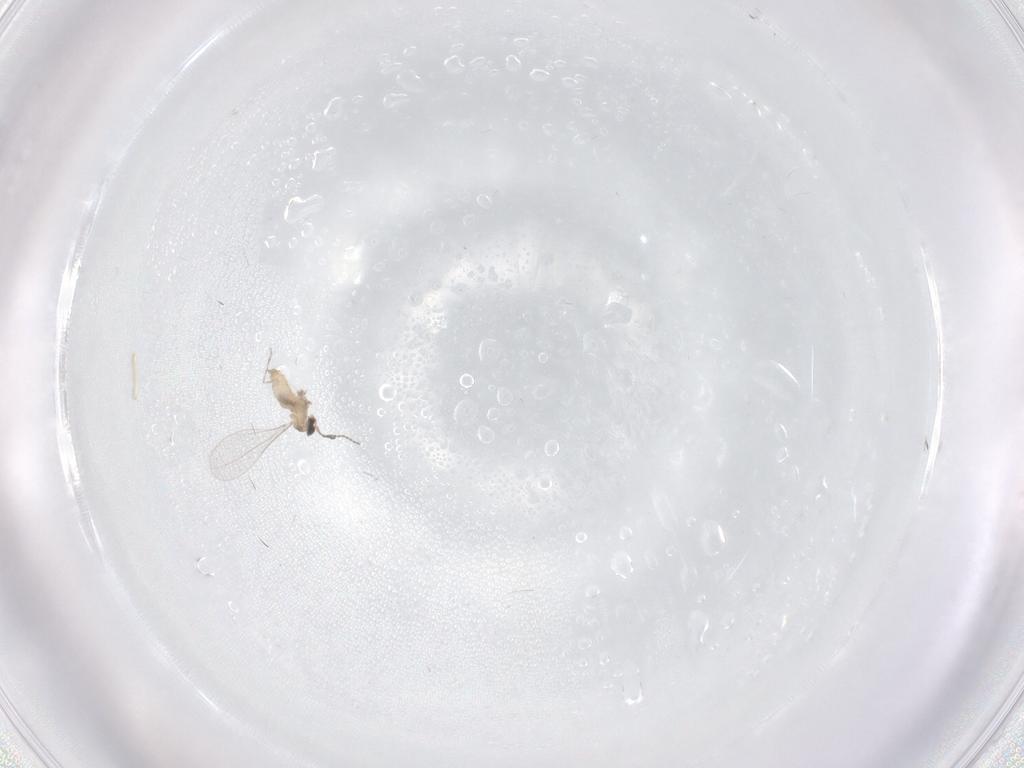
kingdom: Animalia
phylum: Arthropoda
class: Insecta
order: Diptera
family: Cecidomyiidae
